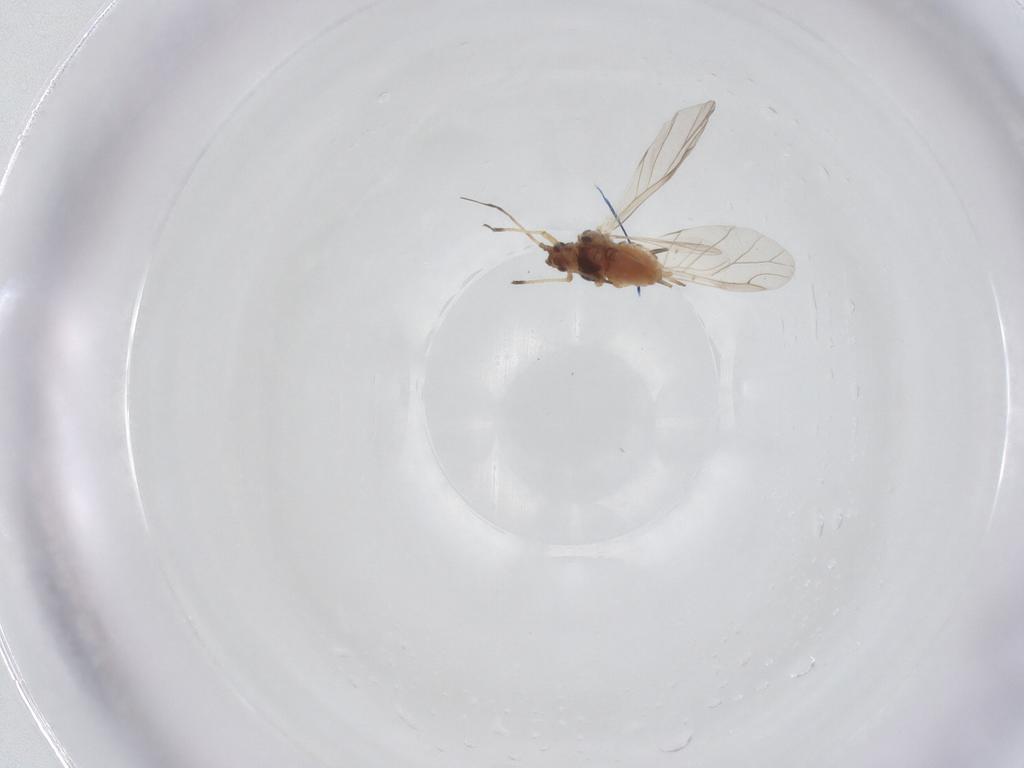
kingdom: Animalia
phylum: Arthropoda
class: Insecta
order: Hemiptera
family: Aphididae
